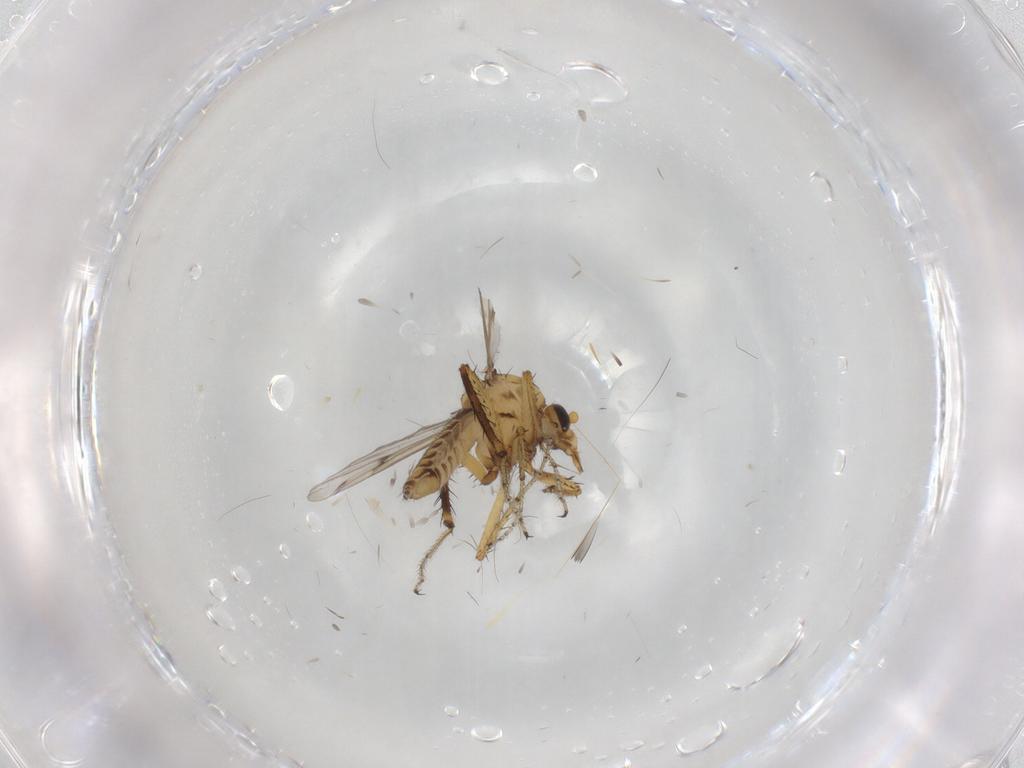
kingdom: Animalia
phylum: Arthropoda
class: Insecta
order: Diptera
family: Ceratopogonidae
